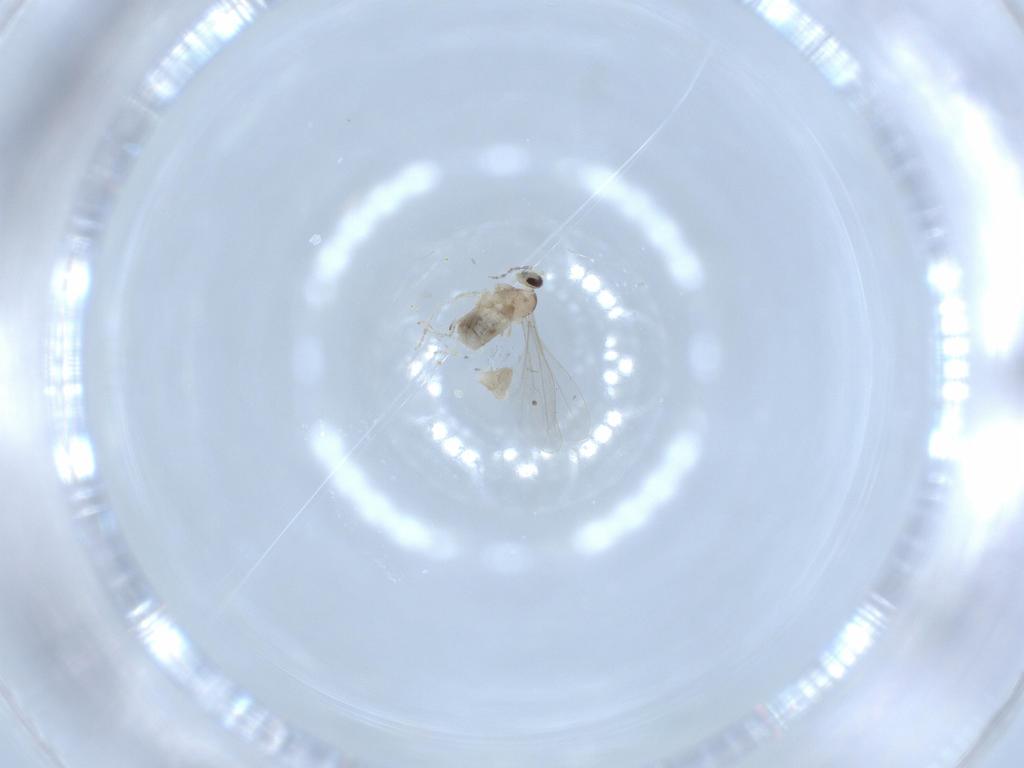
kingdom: Animalia
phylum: Arthropoda
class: Insecta
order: Diptera
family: Cecidomyiidae
